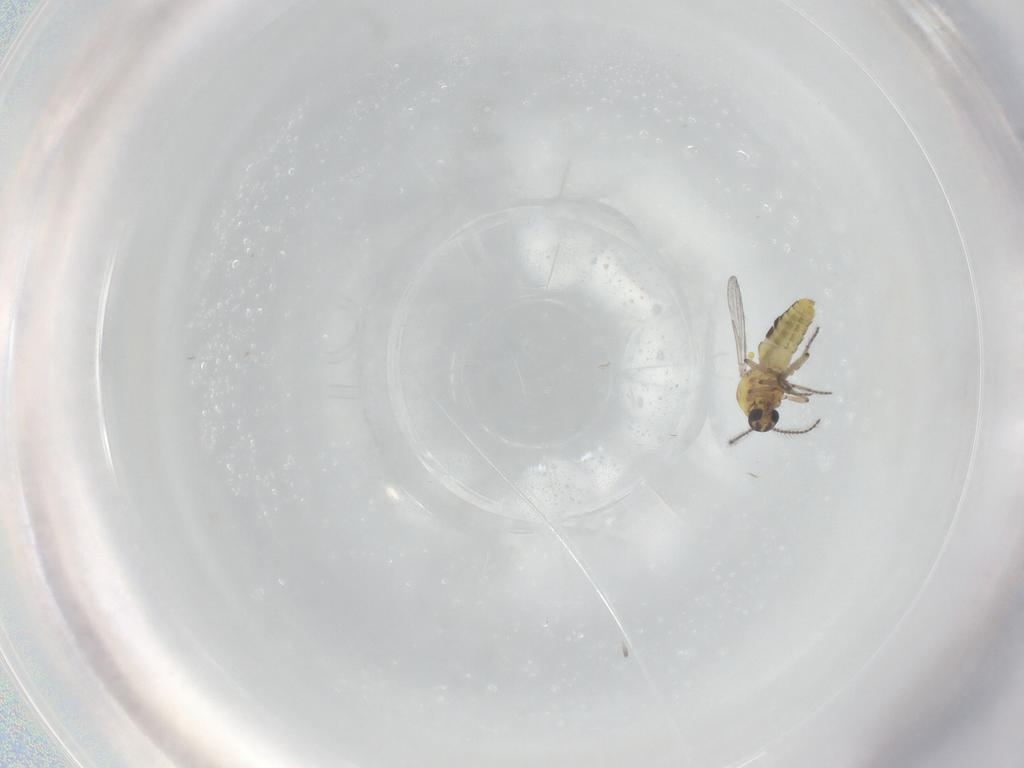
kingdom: Animalia
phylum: Arthropoda
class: Insecta
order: Diptera
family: Ceratopogonidae
